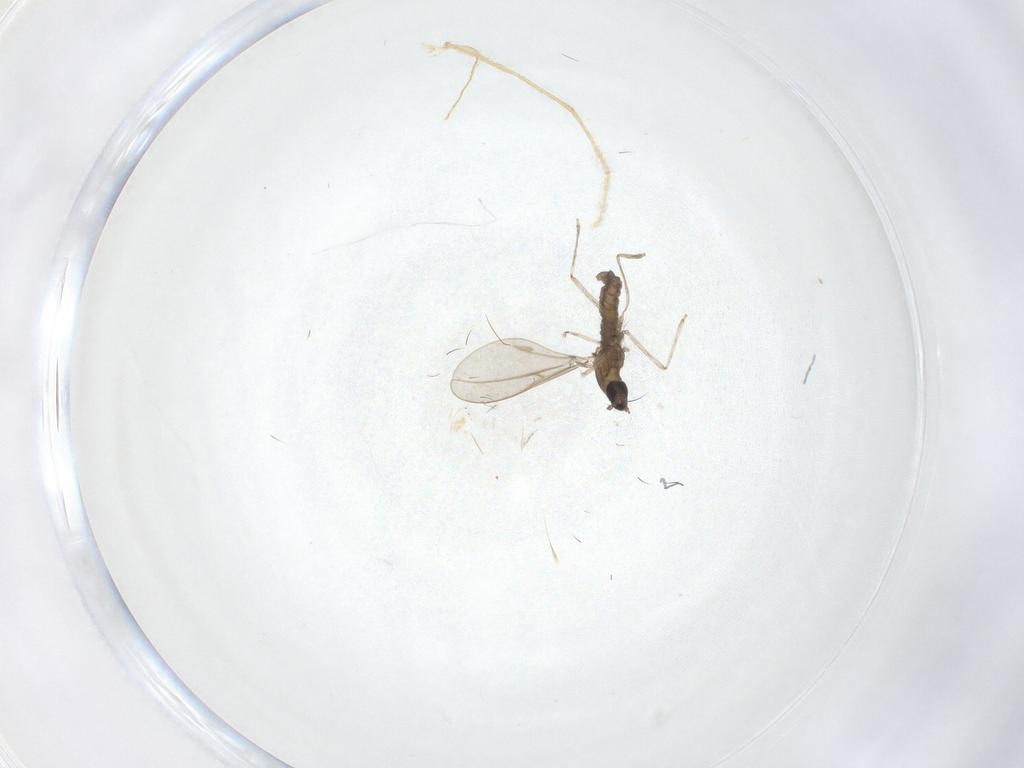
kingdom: Animalia
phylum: Arthropoda
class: Insecta
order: Diptera
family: Cecidomyiidae
